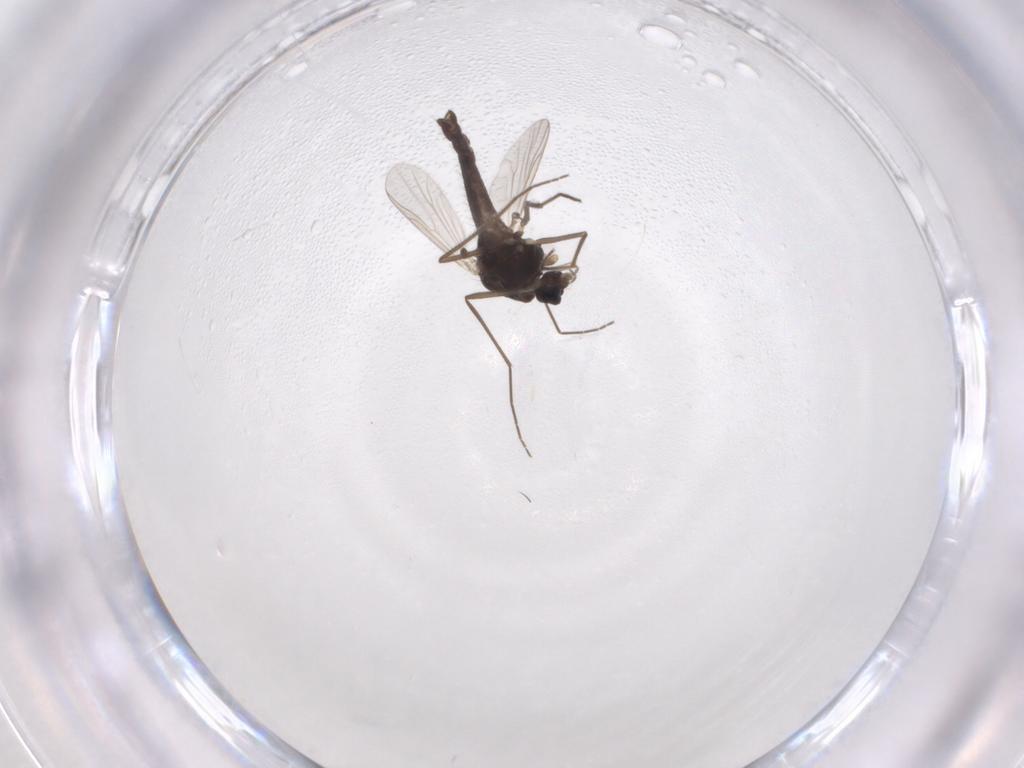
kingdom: Animalia
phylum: Arthropoda
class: Insecta
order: Diptera
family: Chironomidae
